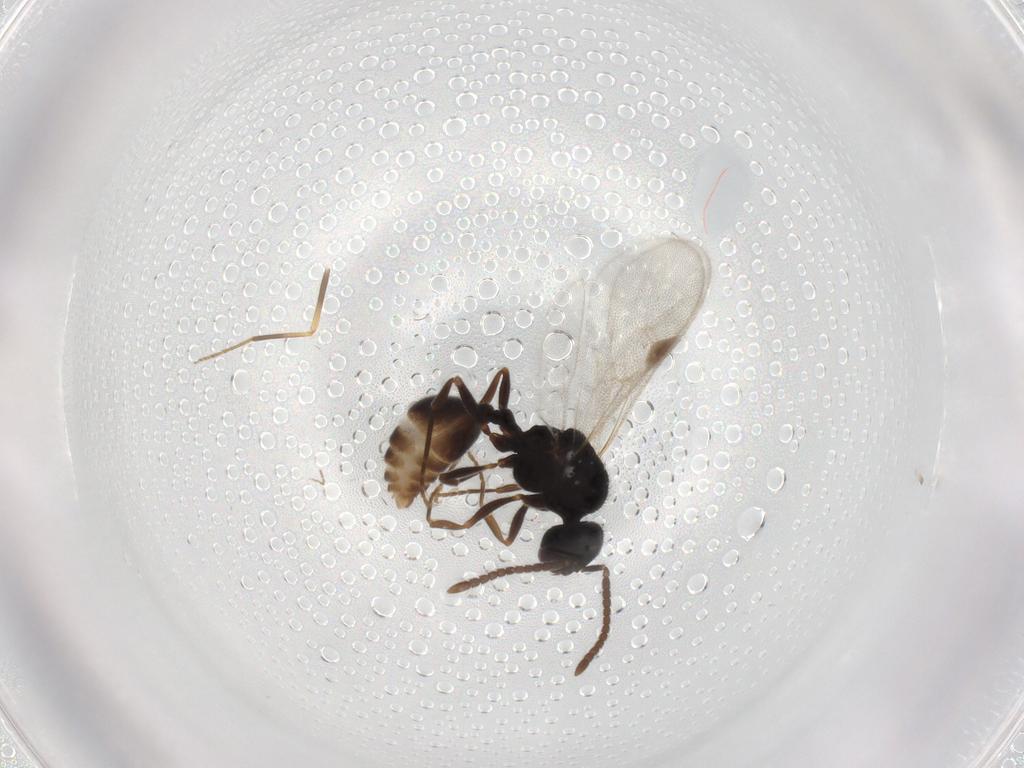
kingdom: Animalia
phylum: Arthropoda
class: Insecta
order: Hymenoptera
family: Formicidae
